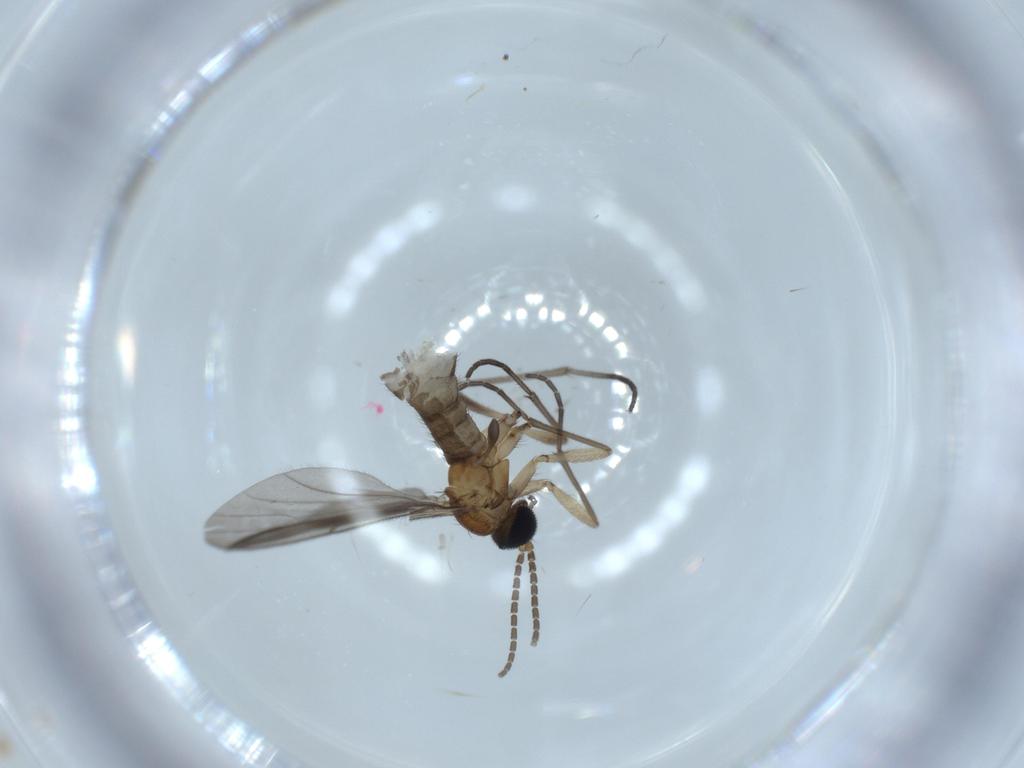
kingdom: Animalia
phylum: Arthropoda
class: Insecta
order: Diptera
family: Sciaridae
